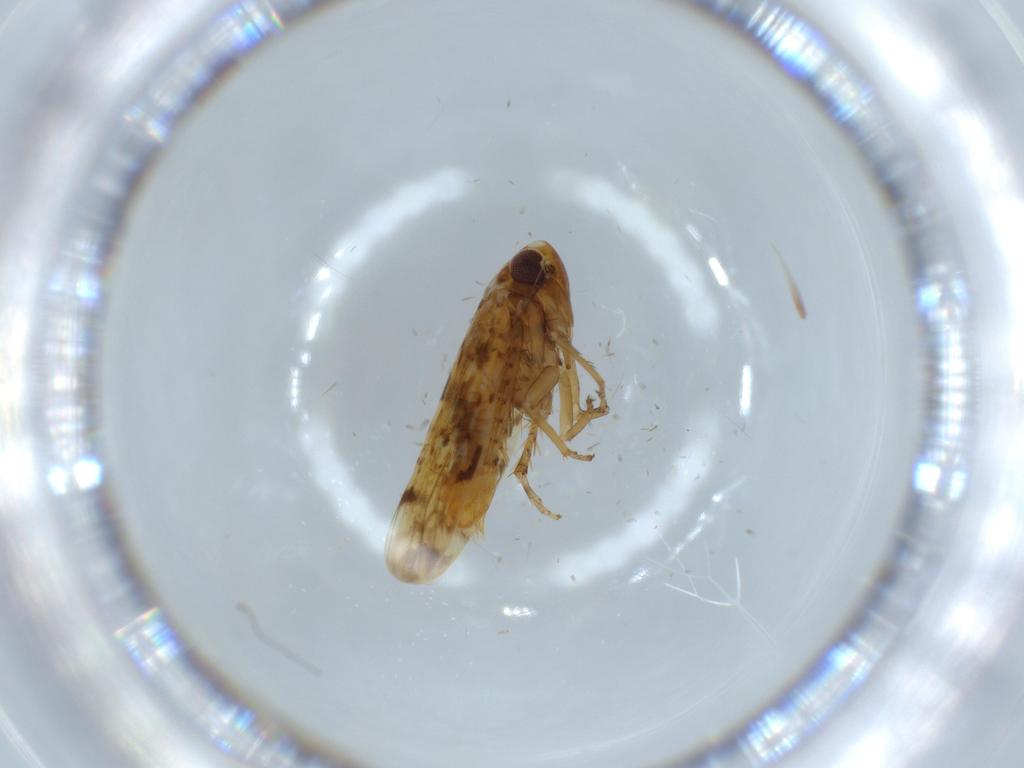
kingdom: Animalia
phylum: Arthropoda
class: Insecta
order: Hemiptera
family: Cicadellidae
